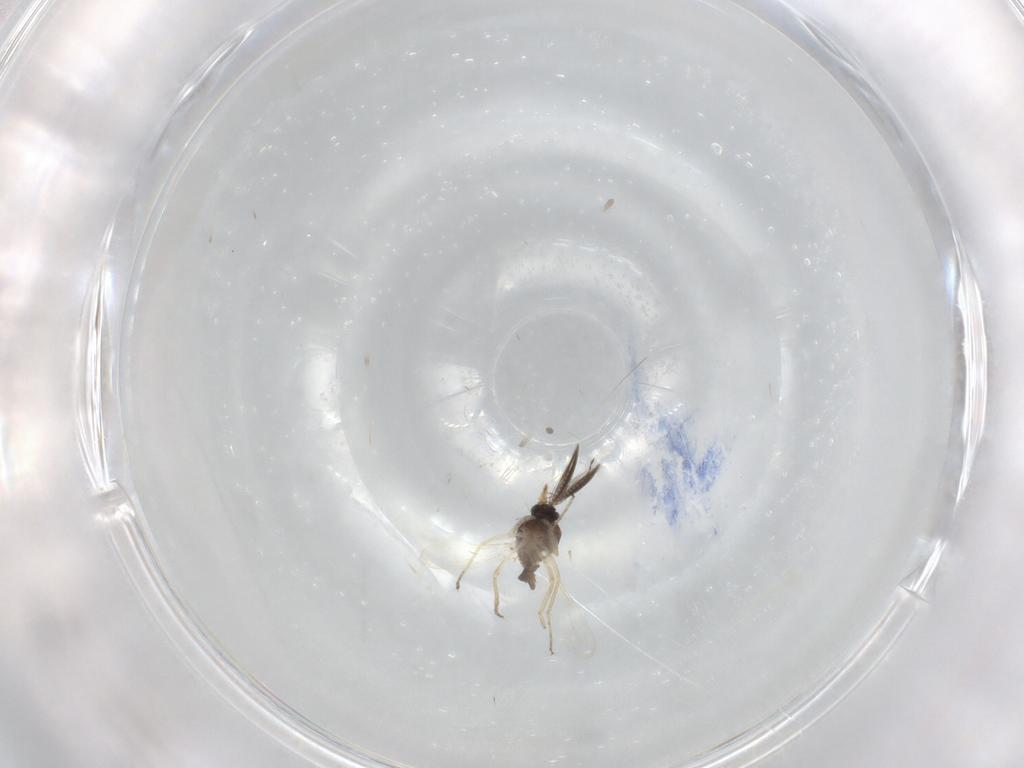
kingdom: Animalia
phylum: Arthropoda
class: Insecta
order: Diptera
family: Ceratopogonidae
